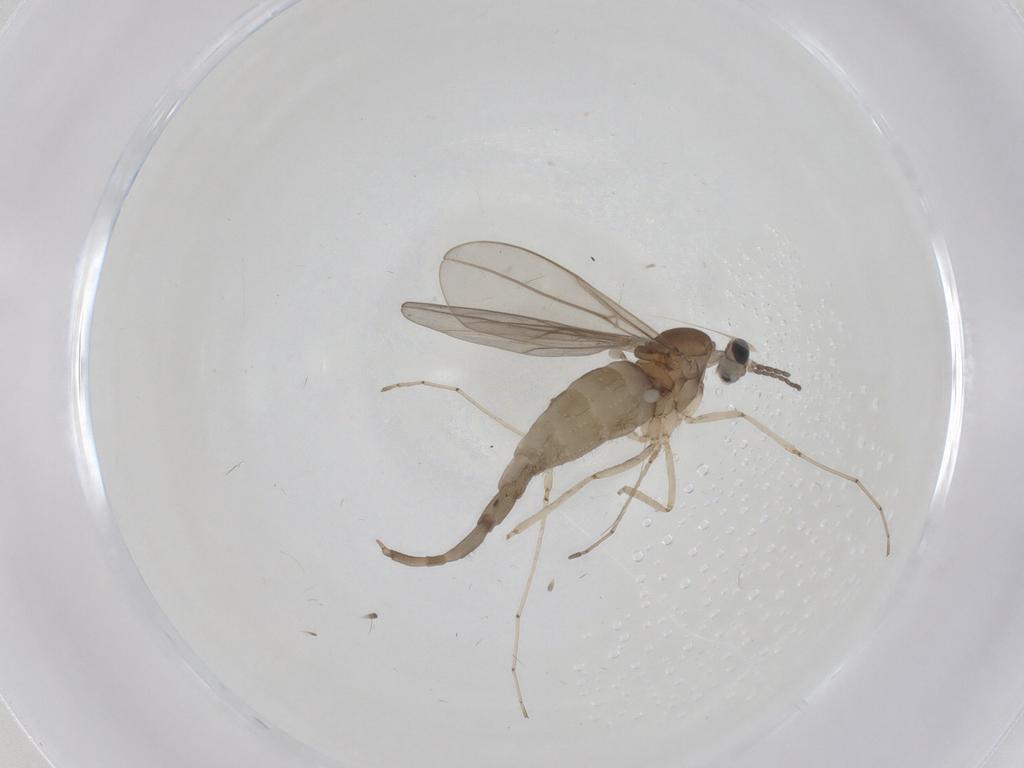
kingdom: Animalia
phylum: Arthropoda
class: Insecta
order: Diptera
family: Cecidomyiidae
